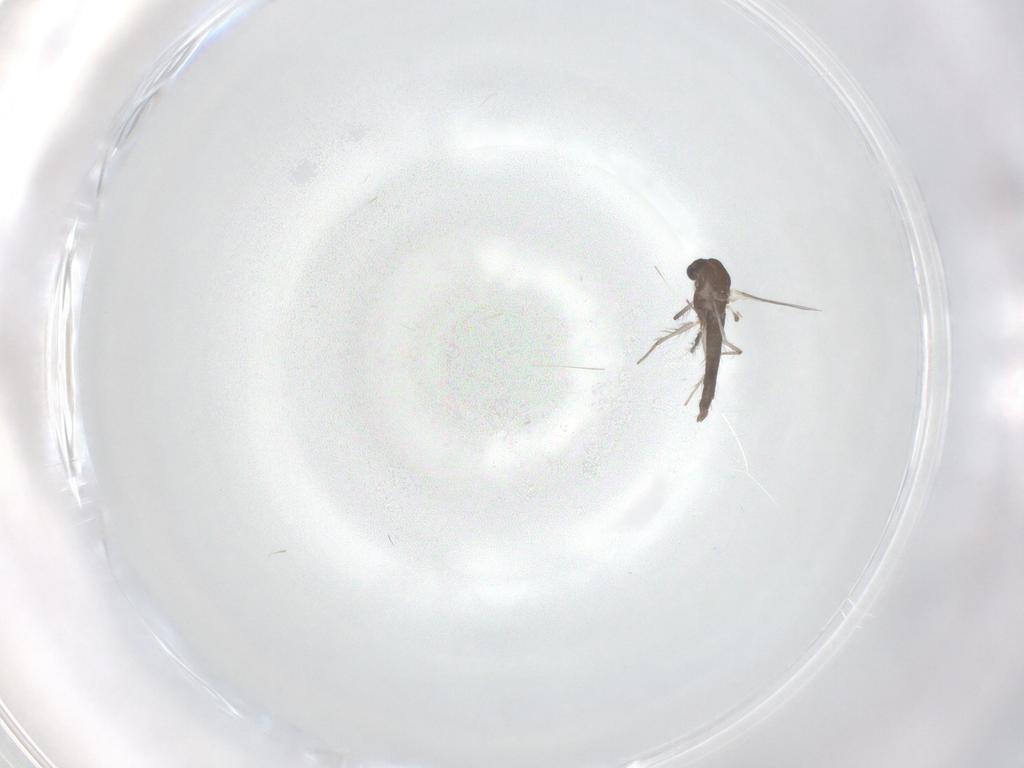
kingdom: Animalia
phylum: Arthropoda
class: Insecta
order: Diptera
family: Chironomidae
